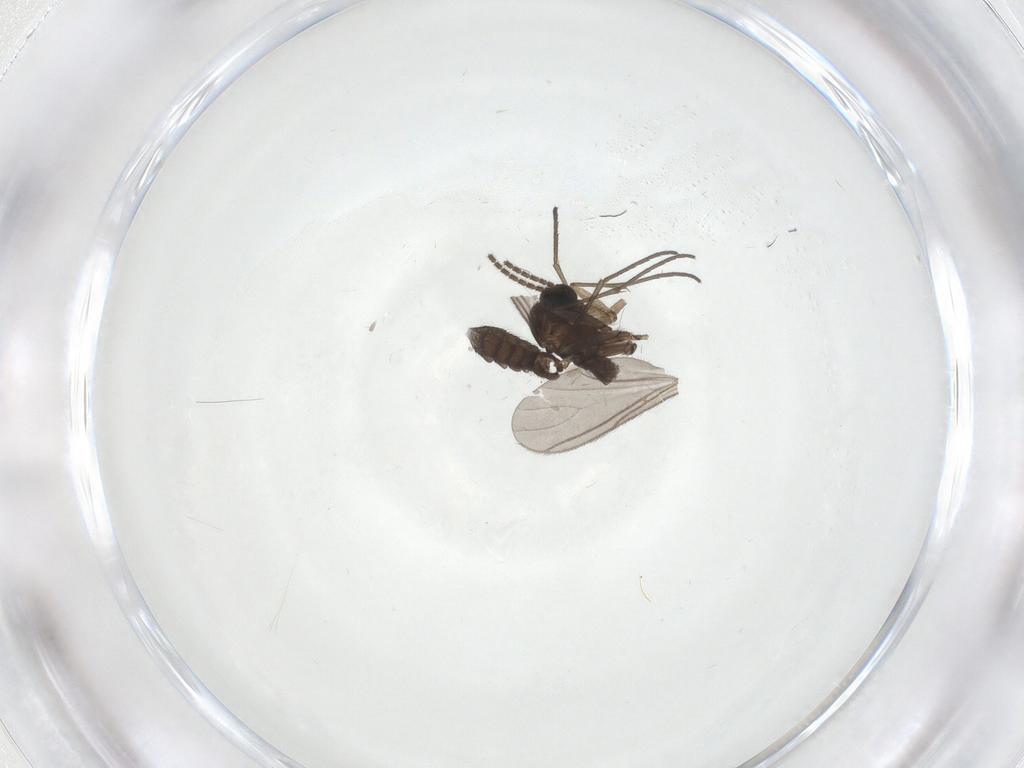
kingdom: Animalia
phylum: Arthropoda
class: Insecta
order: Diptera
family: Sciaridae
